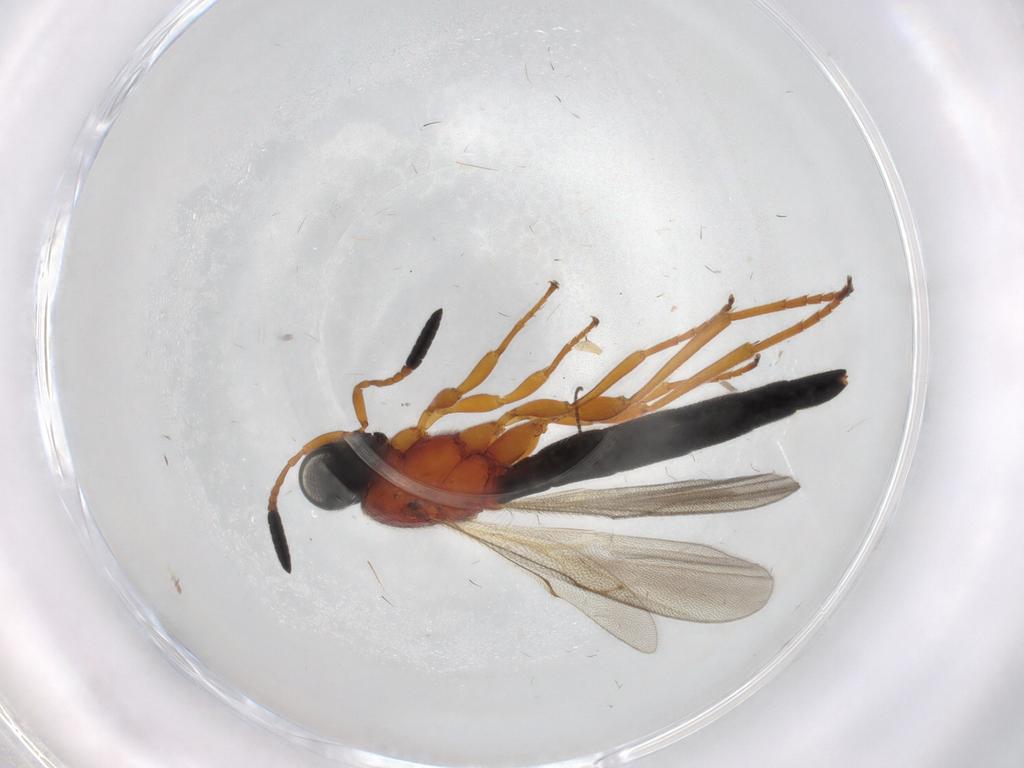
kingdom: Animalia
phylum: Arthropoda
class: Insecta
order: Hymenoptera
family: Scelionidae
